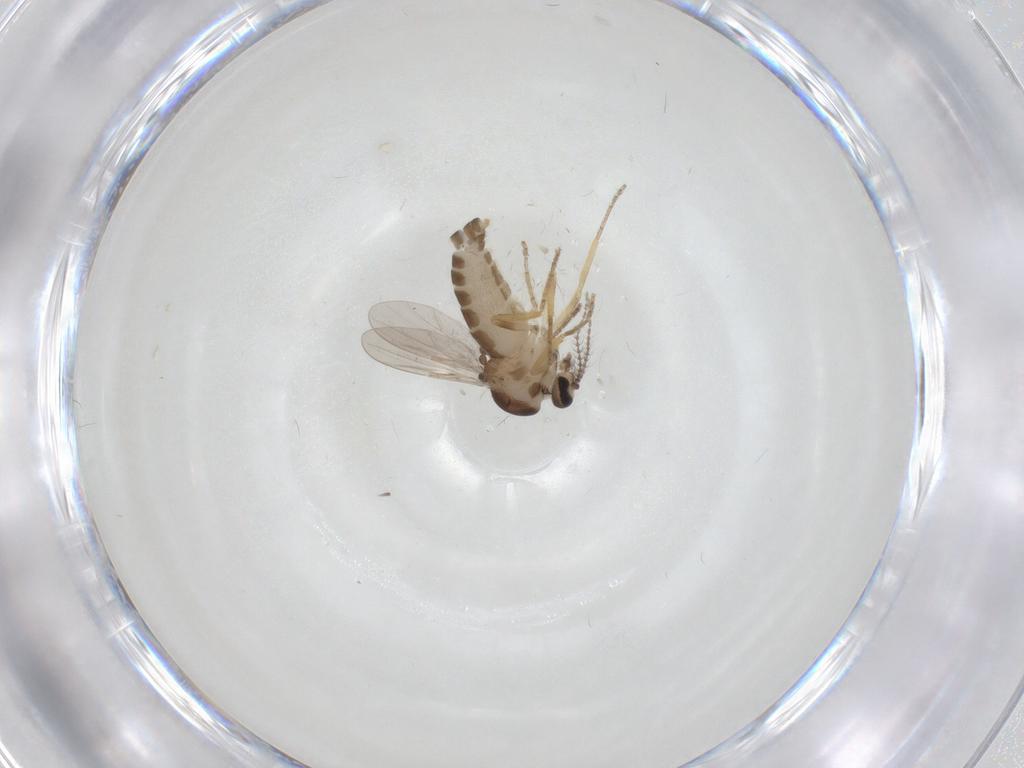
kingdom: Animalia
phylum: Arthropoda
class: Insecta
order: Diptera
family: Ceratopogonidae
